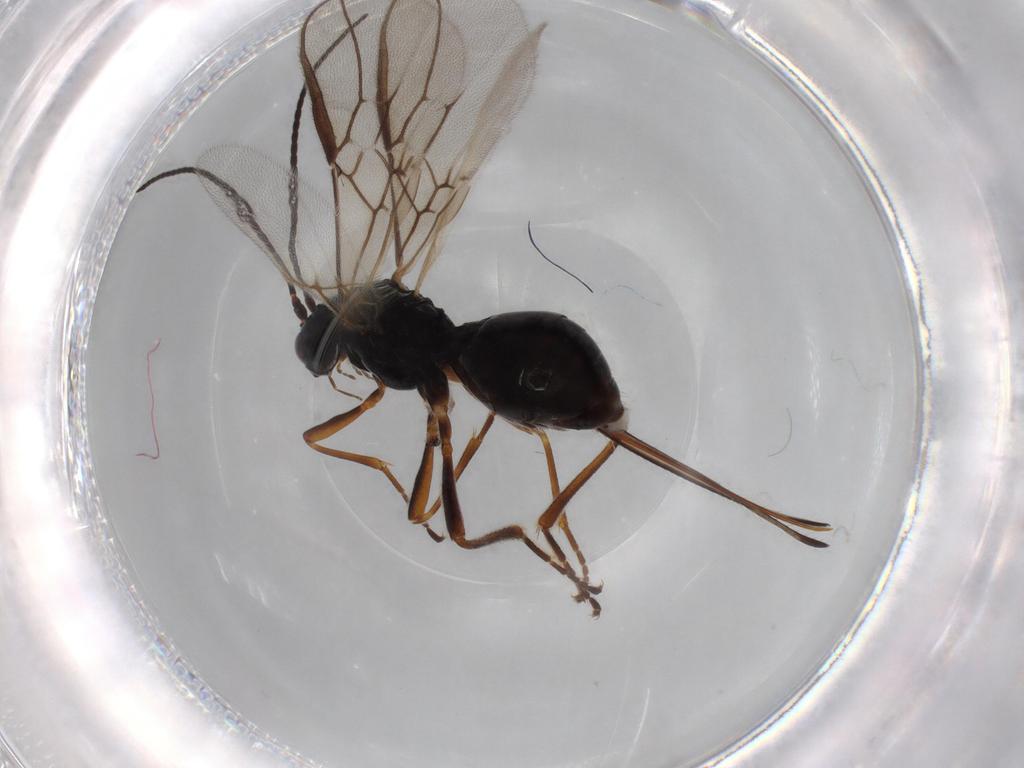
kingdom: Animalia
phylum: Arthropoda
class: Insecta
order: Hymenoptera
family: Braconidae
